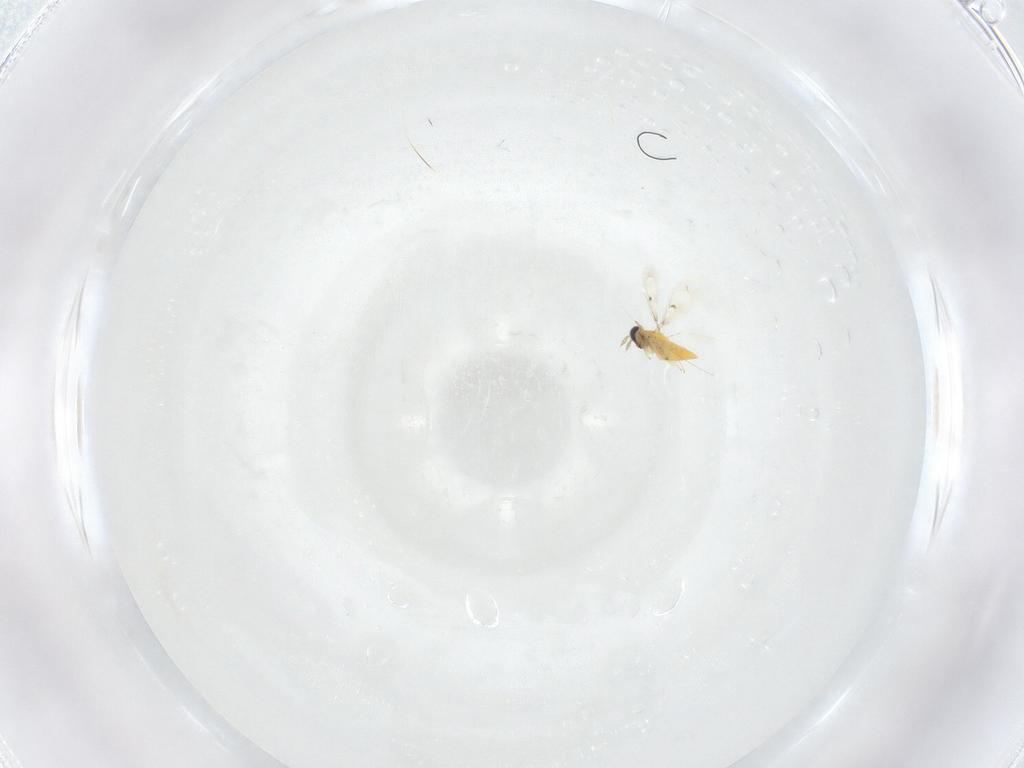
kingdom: Animalia
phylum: Arthropoda
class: Insecta
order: Hymenoptera
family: Trichogrammatidae
